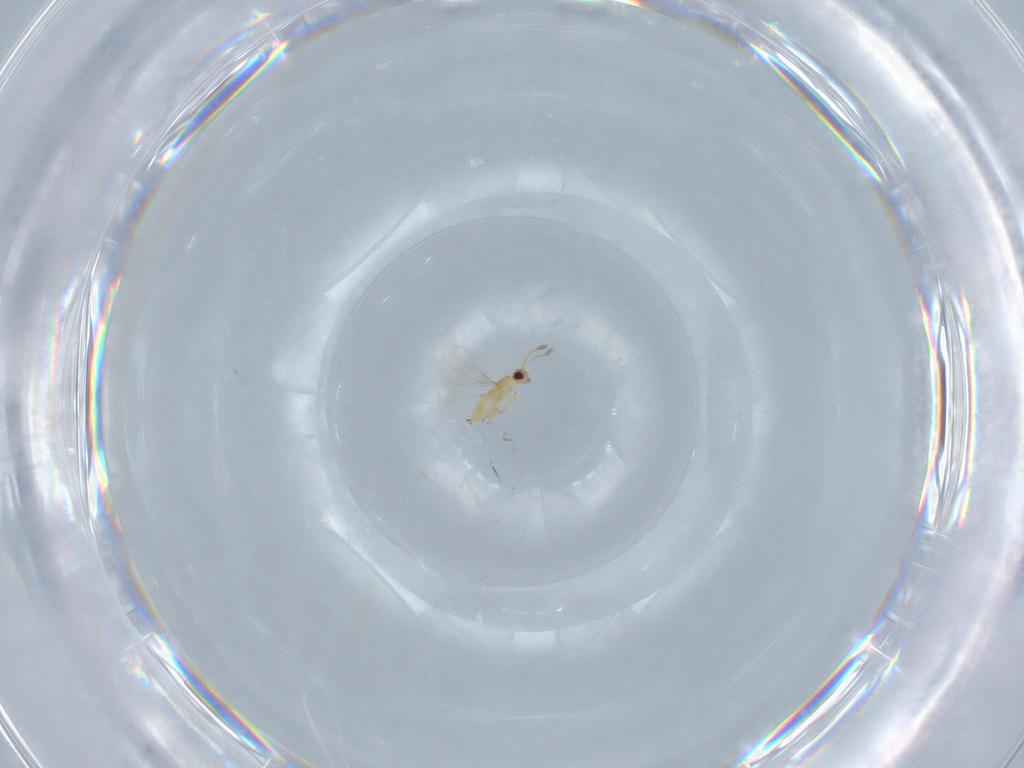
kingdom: Animalia
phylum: Arthropoda
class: Insecta
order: Hymenoptera
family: Mymaridae
